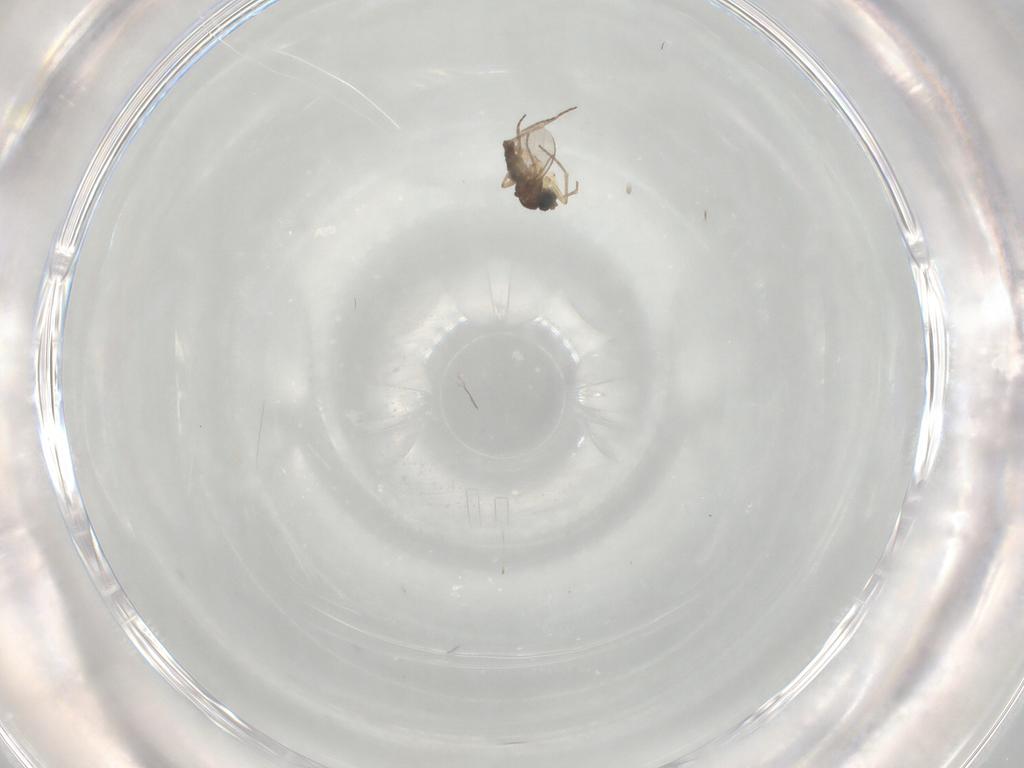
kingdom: Animalia
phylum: Arthropoda
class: Insecta
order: Diptera
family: Sciaridae
